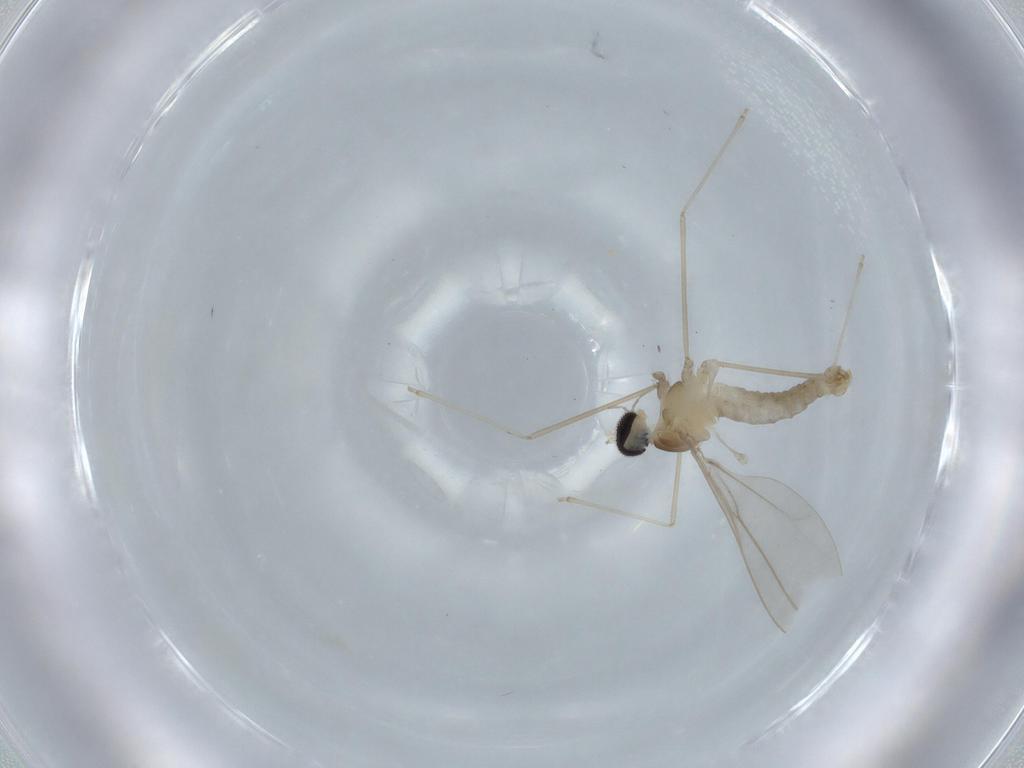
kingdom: Animalia
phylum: Arthropoda
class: Insecta
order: Diptera
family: Cecidomyiidae
